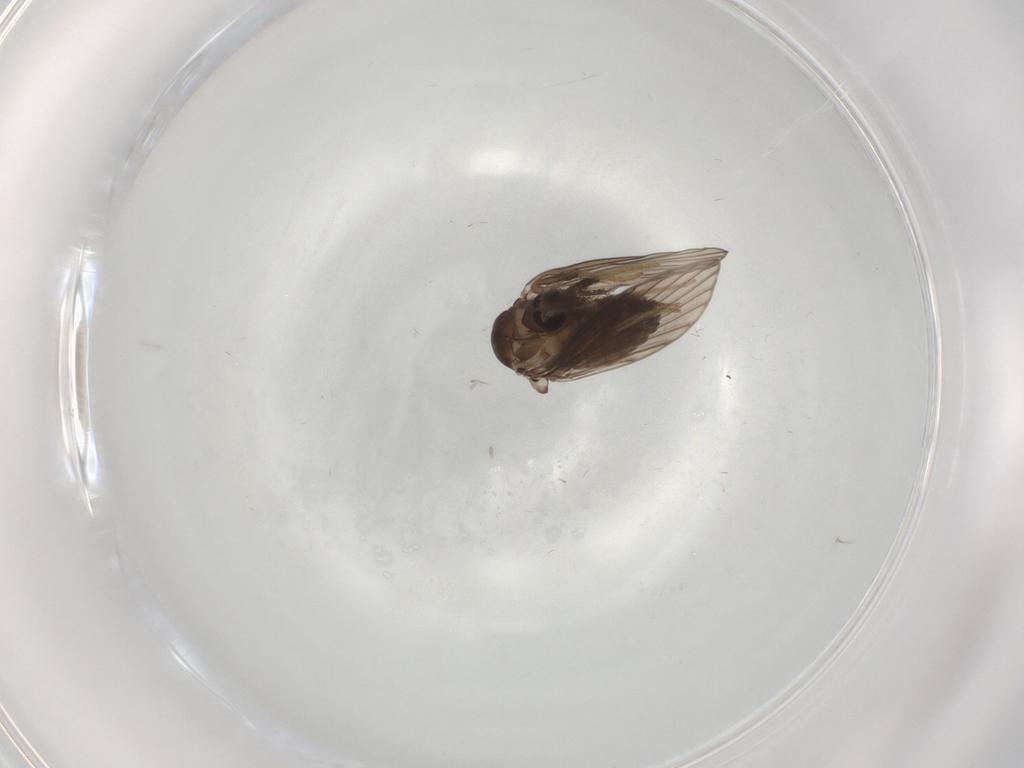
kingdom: Animalia
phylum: Arthropoda
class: Insecta
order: Diptera
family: Psychodidae
